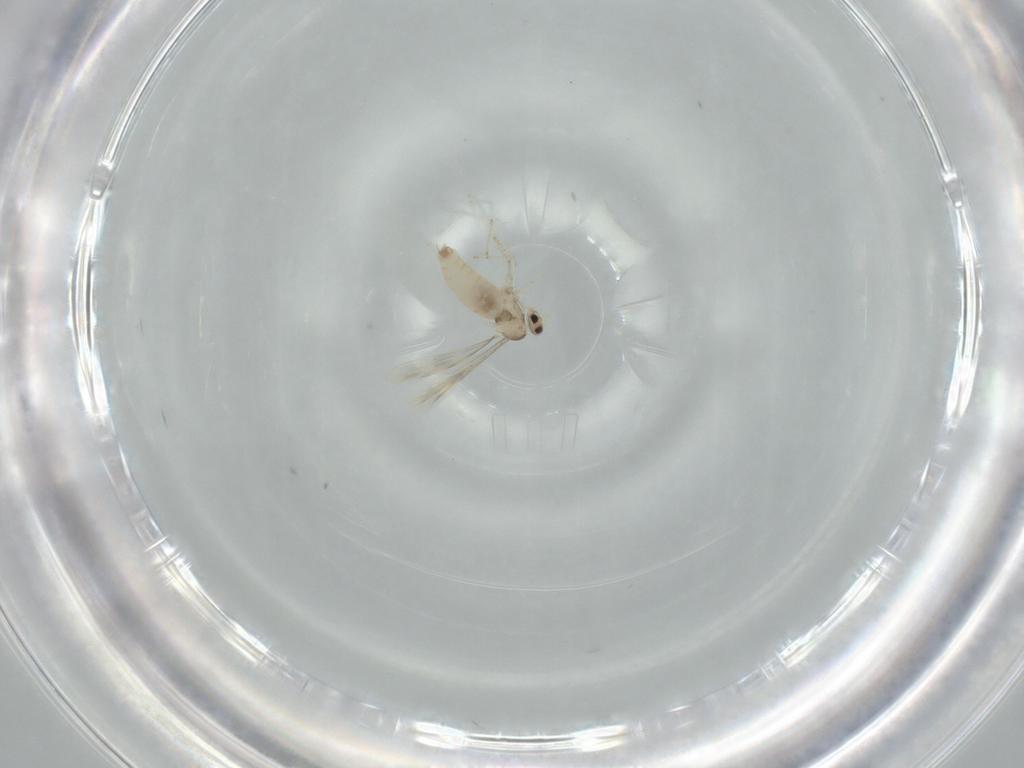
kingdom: Animalia
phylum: Arthropoda
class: Insecta
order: Diptera
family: Cecidomyiidae
